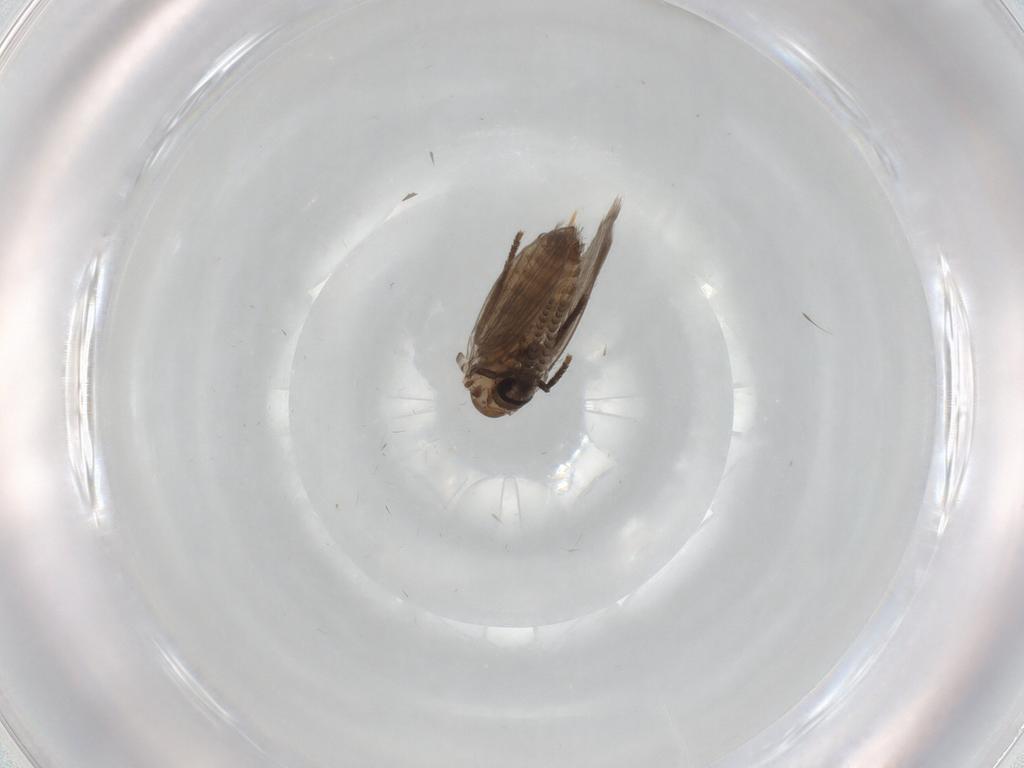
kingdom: Animalia
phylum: Arthropoda
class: Insecta
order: Diptera
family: Psychodidae
